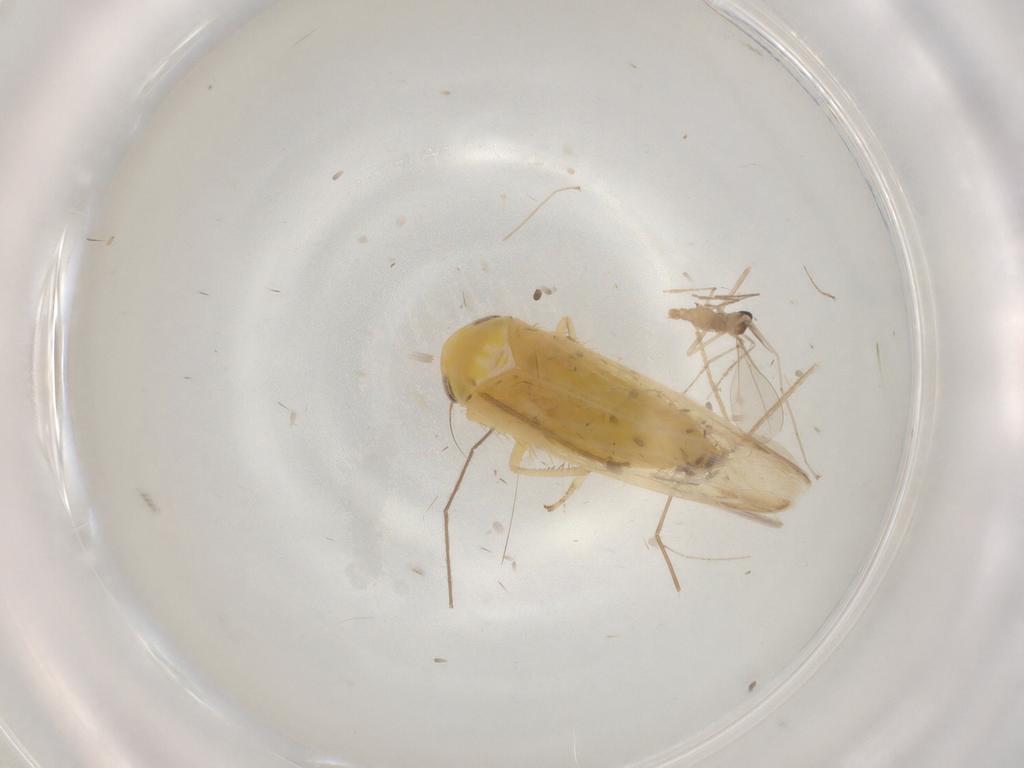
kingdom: Animalia
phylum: Arthropoda
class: Insecta
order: Diptera
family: Cecidomyiidae
